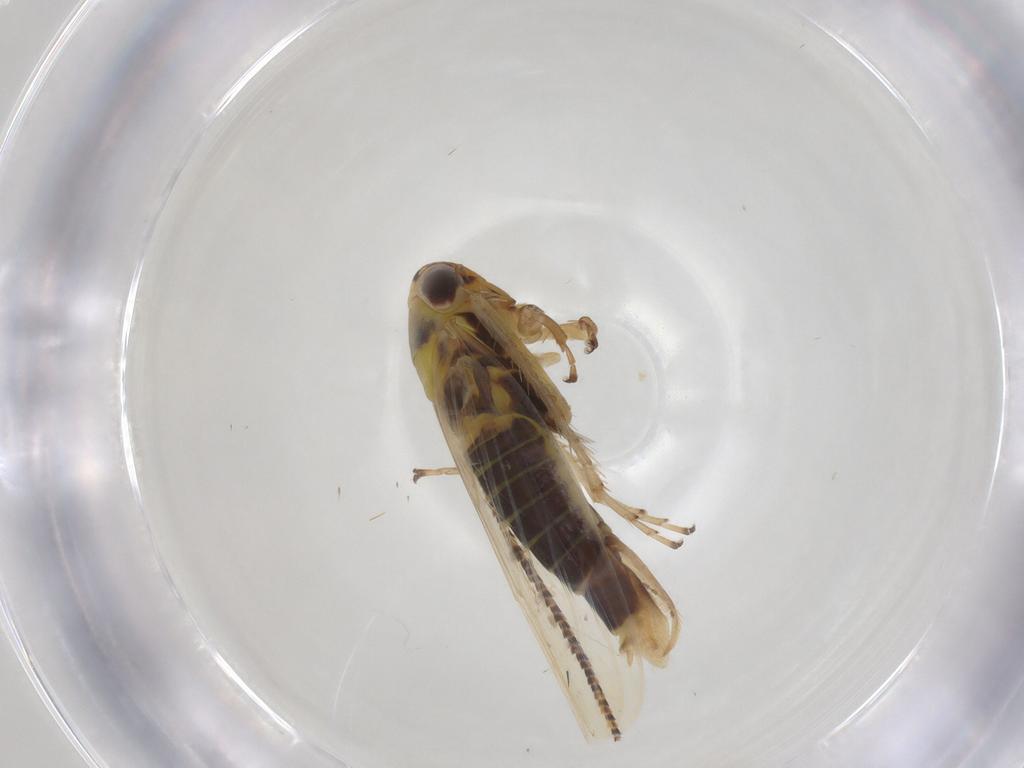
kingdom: Animalia
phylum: Arthropoda
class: Insecta
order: Hemiptera
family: Cicadellidae
